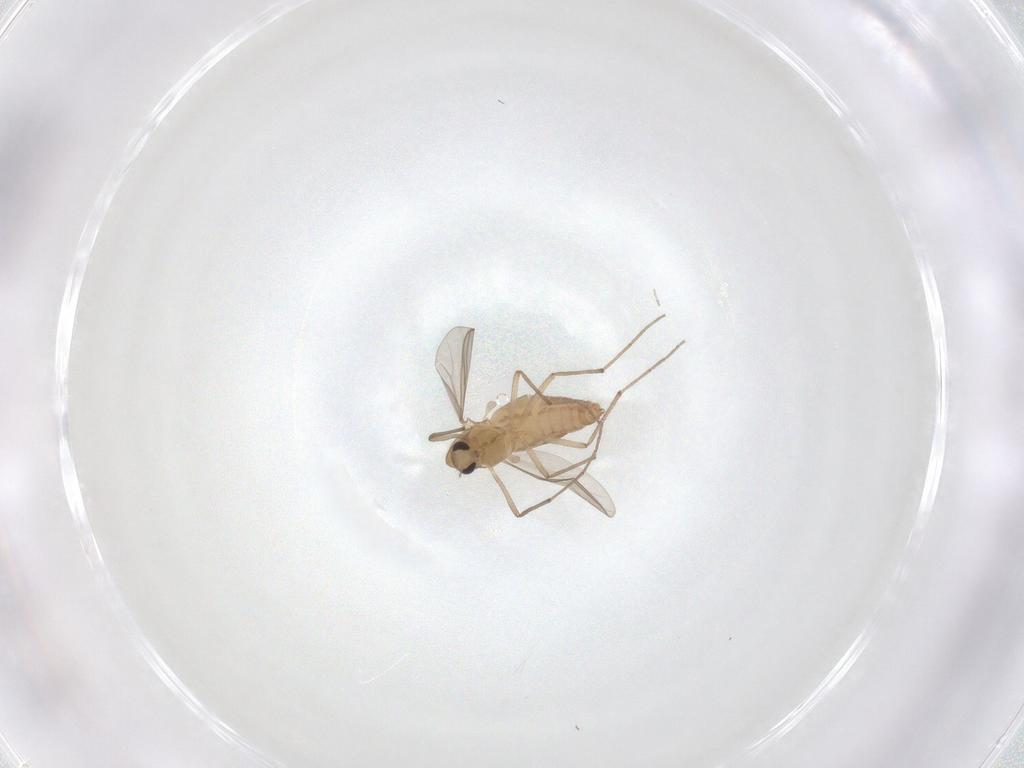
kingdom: Animalia
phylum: Arthropoda
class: Insecta
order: Diptera
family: Chironomidae
